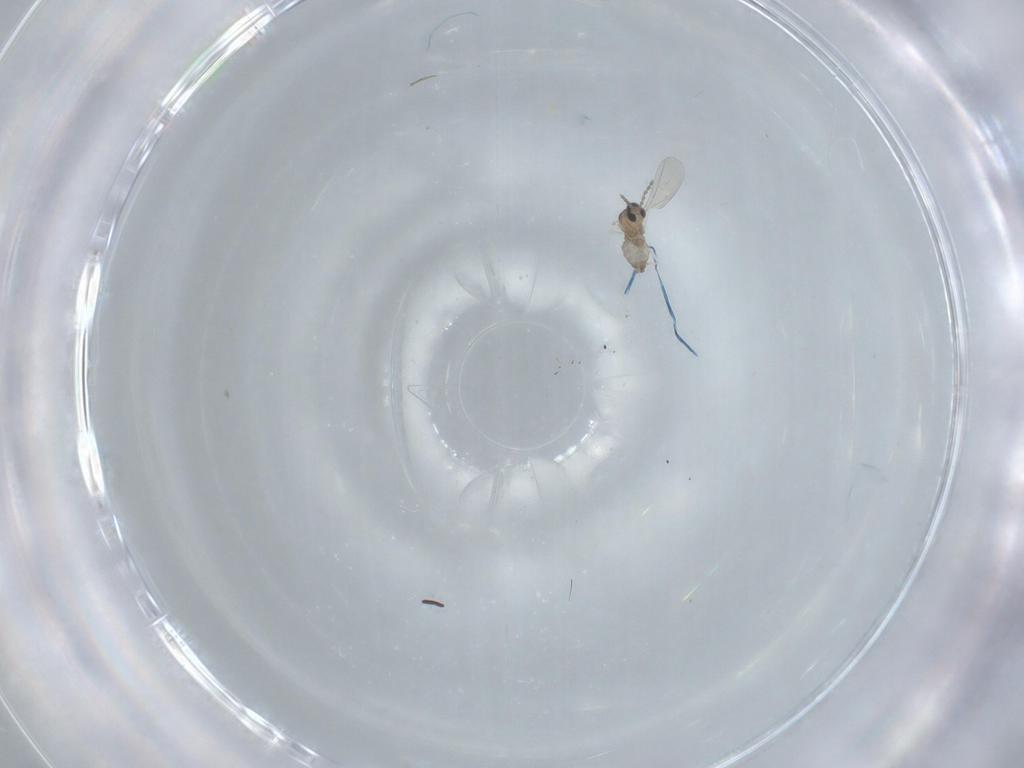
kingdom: Animalia
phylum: Arthropoda
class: Insecta
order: Diptera
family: Cecidomyiidae
